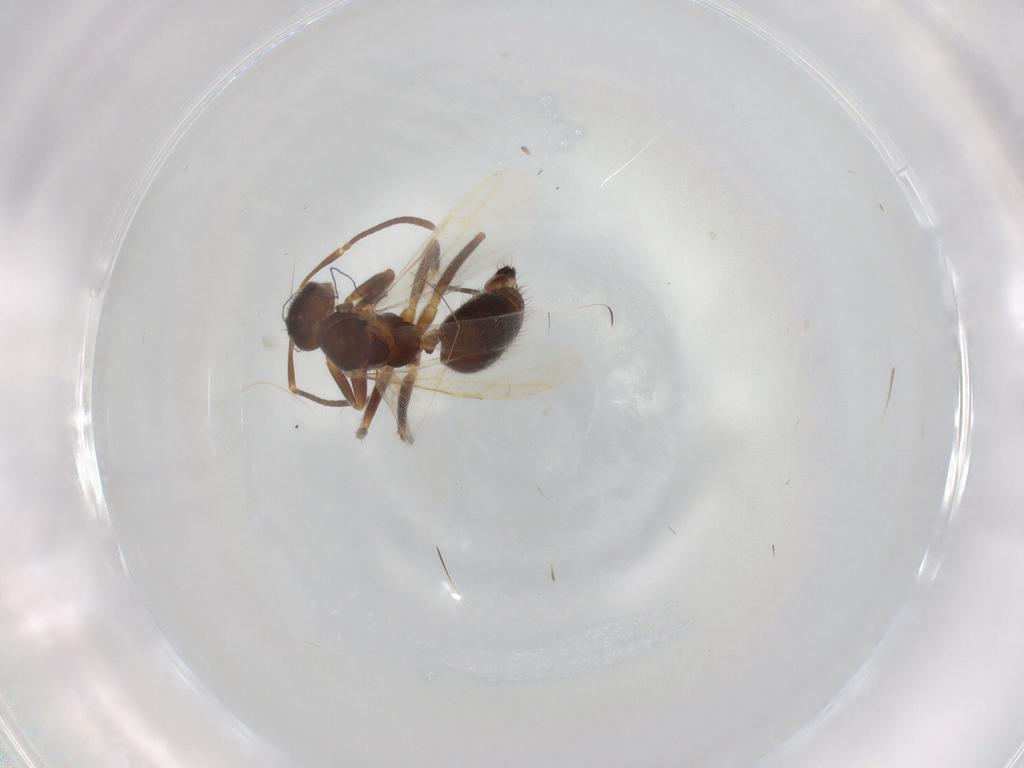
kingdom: Animalia
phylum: Arthropoda
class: Insecta
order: Hymenoptera
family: Formicidae
